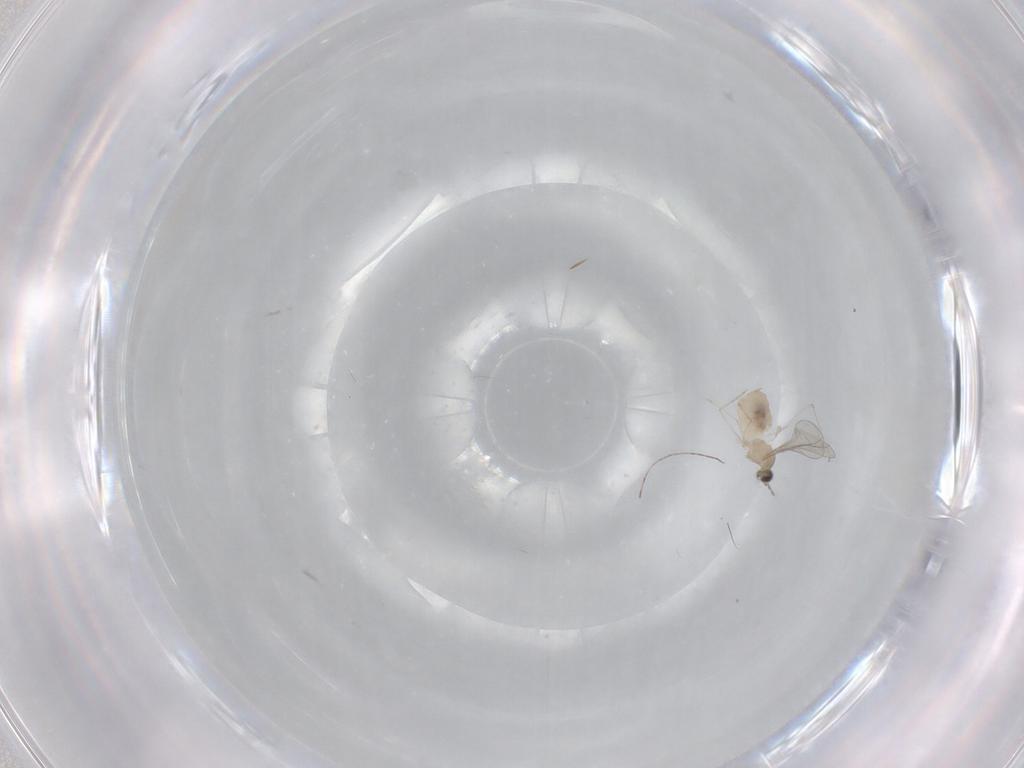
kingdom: Animalia
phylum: Arthropoda
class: Insecta
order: Diptera
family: Cecidomyiidae
